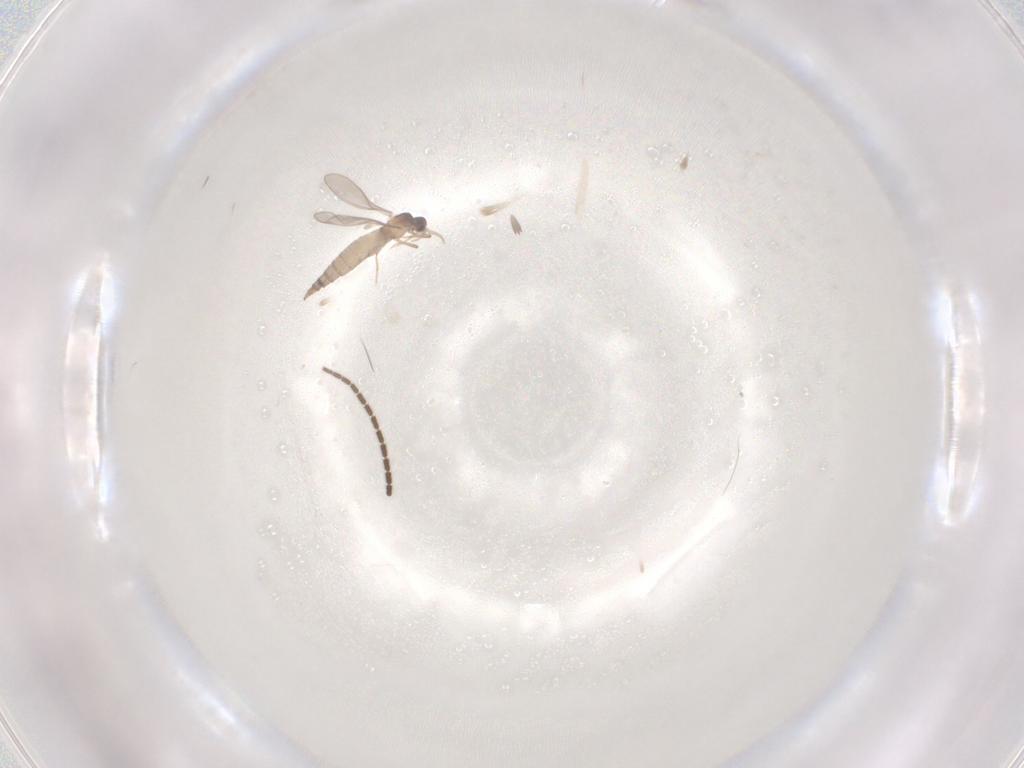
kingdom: Animalia
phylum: Arthropoda
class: Insecta
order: Diptera
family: Sciaridae
